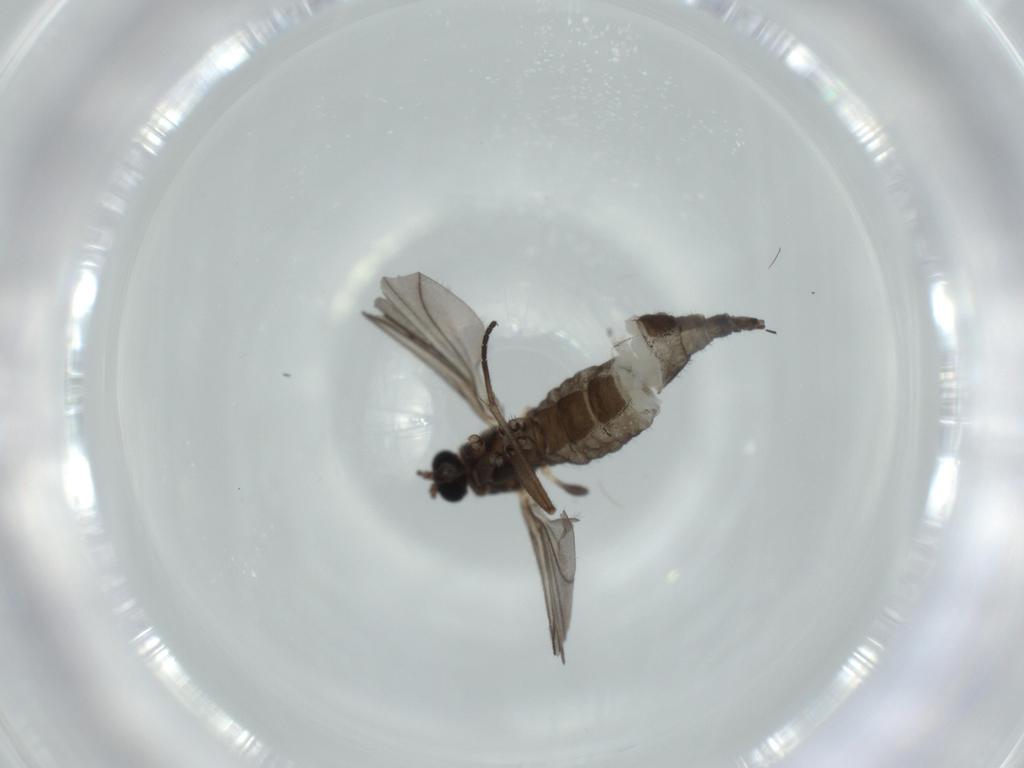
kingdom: Animalia
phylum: Arthropoda
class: Insecta
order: Diptera
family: Sciaridae
